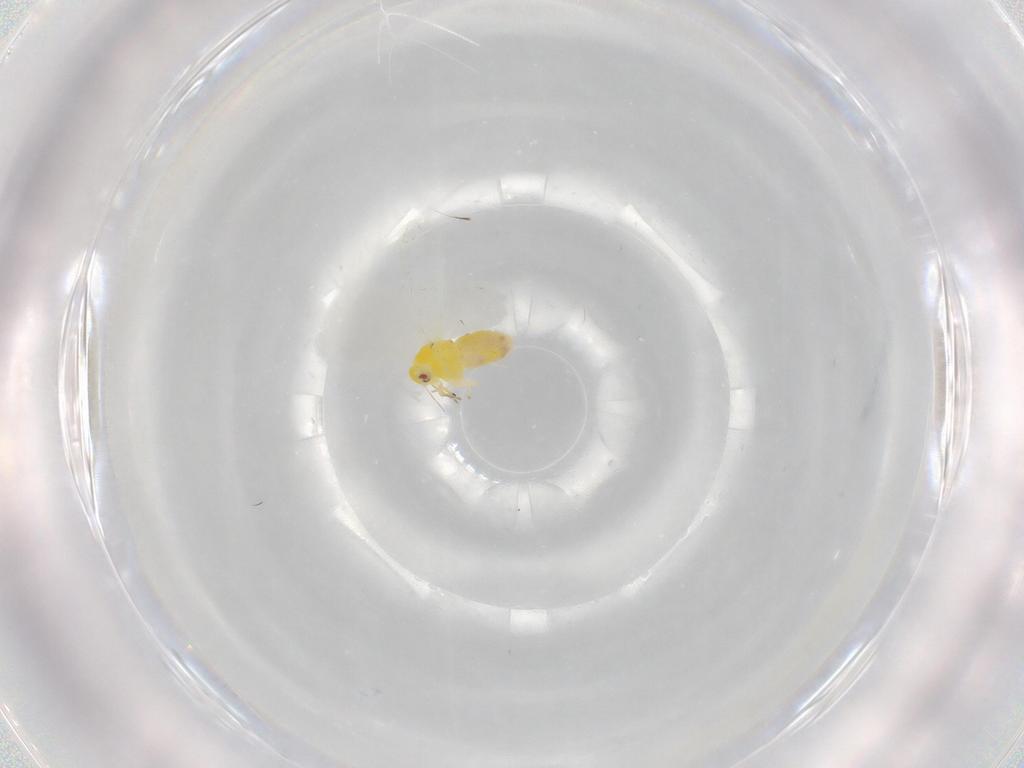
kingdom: Animalia
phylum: Arthropoda
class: Insecta
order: Hemiptera
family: Aleyrodidae
